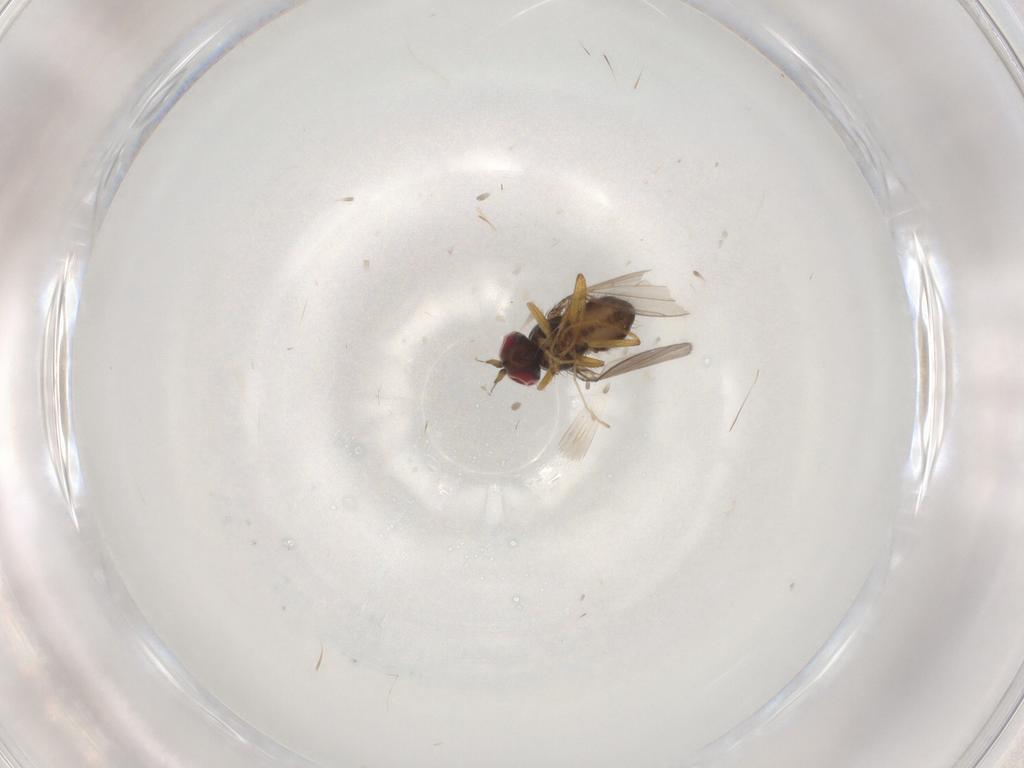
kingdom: Animalia
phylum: Arthropoda
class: Insecta
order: Diptera
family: Ephydridae
